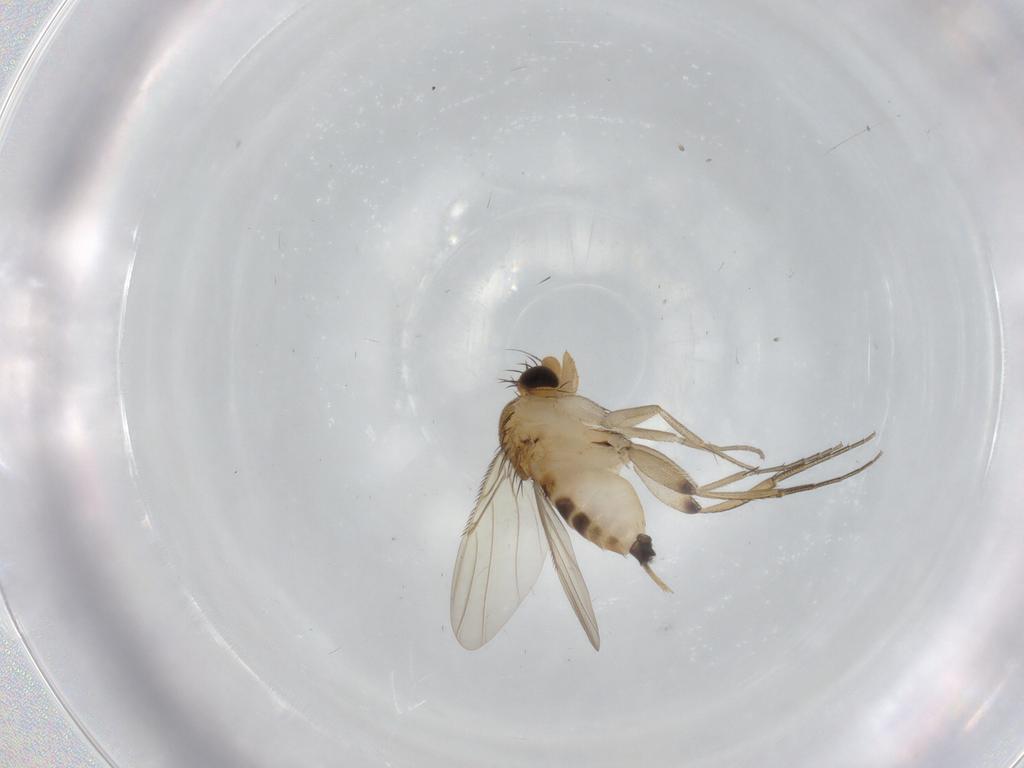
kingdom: Animalia
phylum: Arthropoda
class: Insecta
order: Diptera
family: Phoridae
